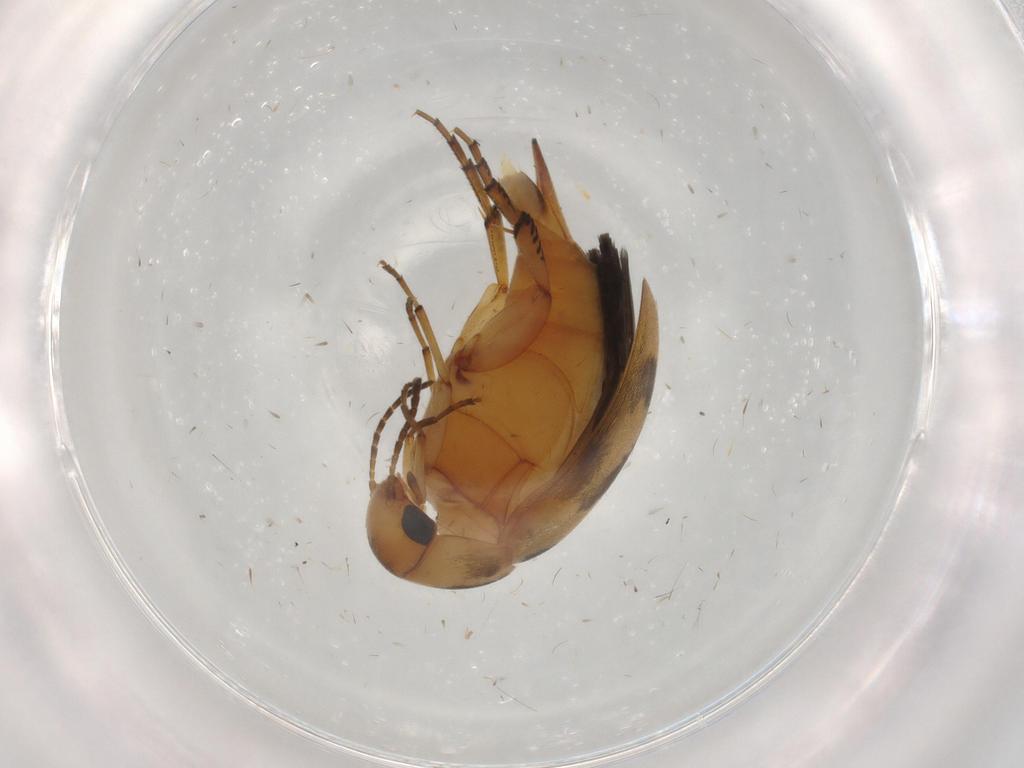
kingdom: Animalia
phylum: Arthropoda
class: Insecta
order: Coleoptera
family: Mordellidae
